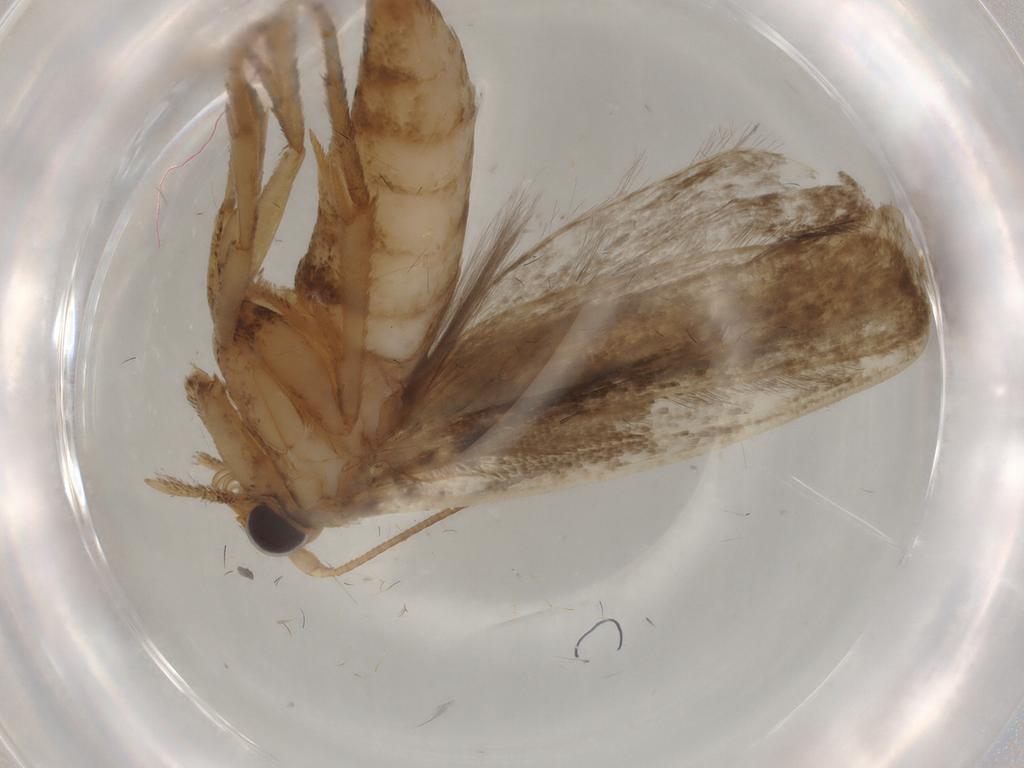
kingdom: Animalia
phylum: Arthropoda
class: Insecta
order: Lepidoptera
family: Yponomeutidae
